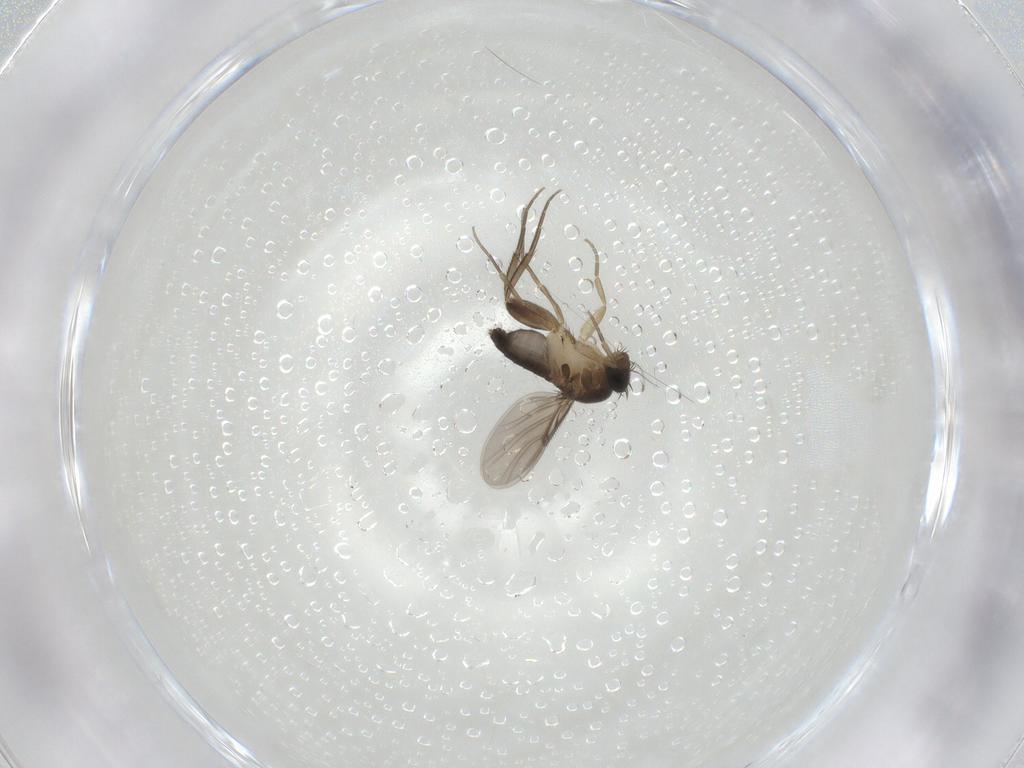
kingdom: Animalia
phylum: Arthropoda
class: Insecta
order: Diptera
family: Phoridae
